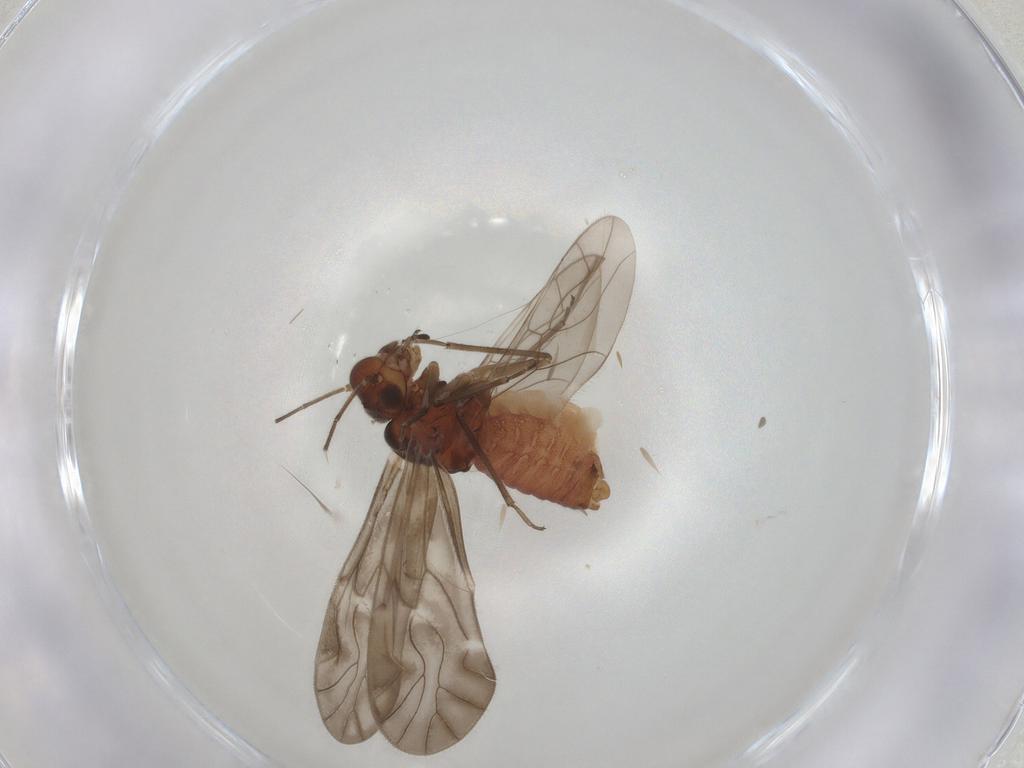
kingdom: Animalia
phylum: Arthropoda
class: Insecta
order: Psocodea
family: Caeciliusidae
